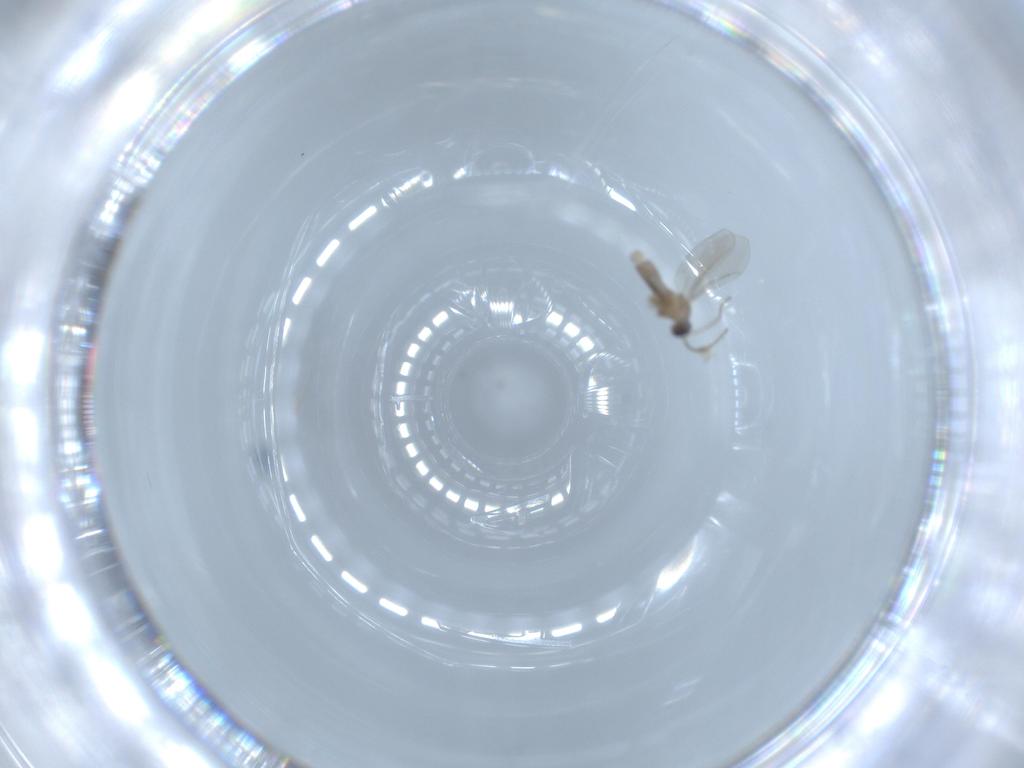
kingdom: Animalia
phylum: Arthropoda
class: Insecta
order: Diptera
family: Cecidomyiidae
